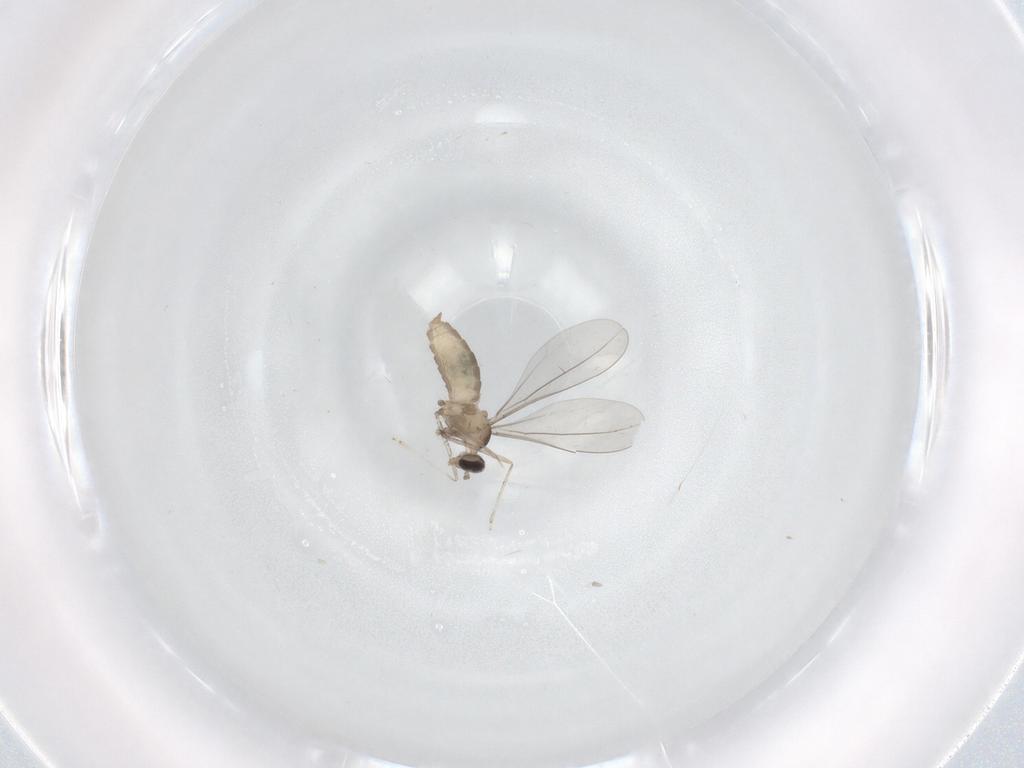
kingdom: Animalia
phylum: Arthropoda
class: Insecta
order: Diptera
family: Cecidomyiidae
